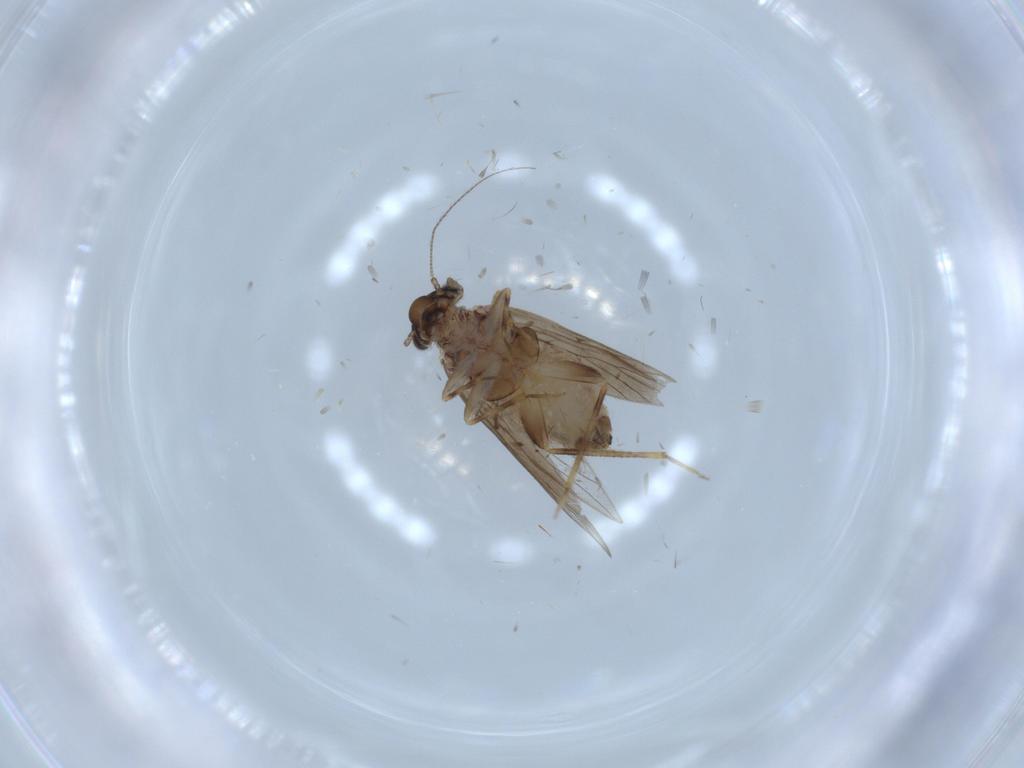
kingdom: Animalia
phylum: Arthropoda
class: Insecta
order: Psocodea
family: Lepidopsocidae
